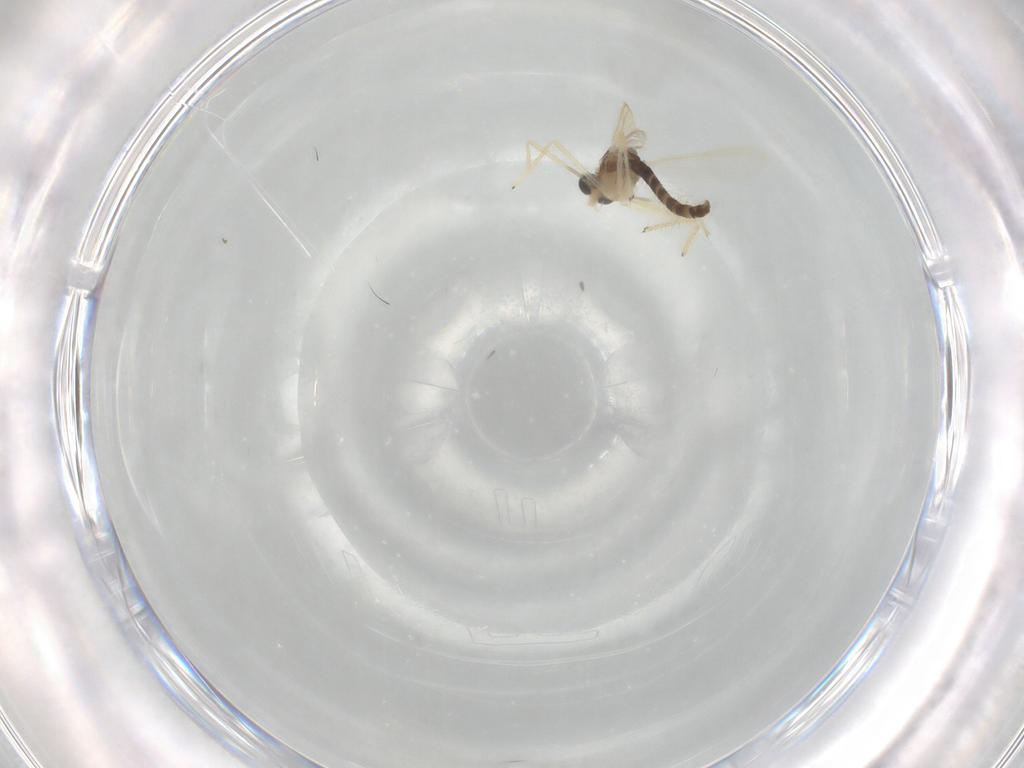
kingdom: Animalia
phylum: Arthropoda
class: Insecta
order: Diptera
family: Chironomidae
